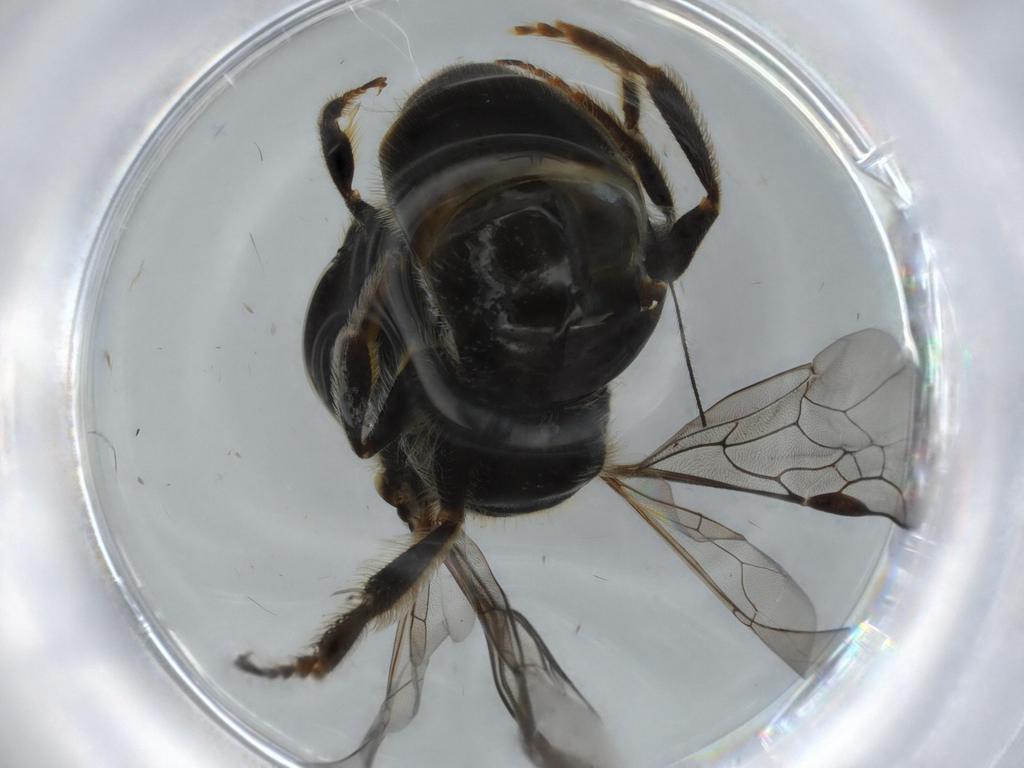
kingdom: Animalia
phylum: Arthropoda
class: Insecta
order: Hymenoptera
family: Halictidae
